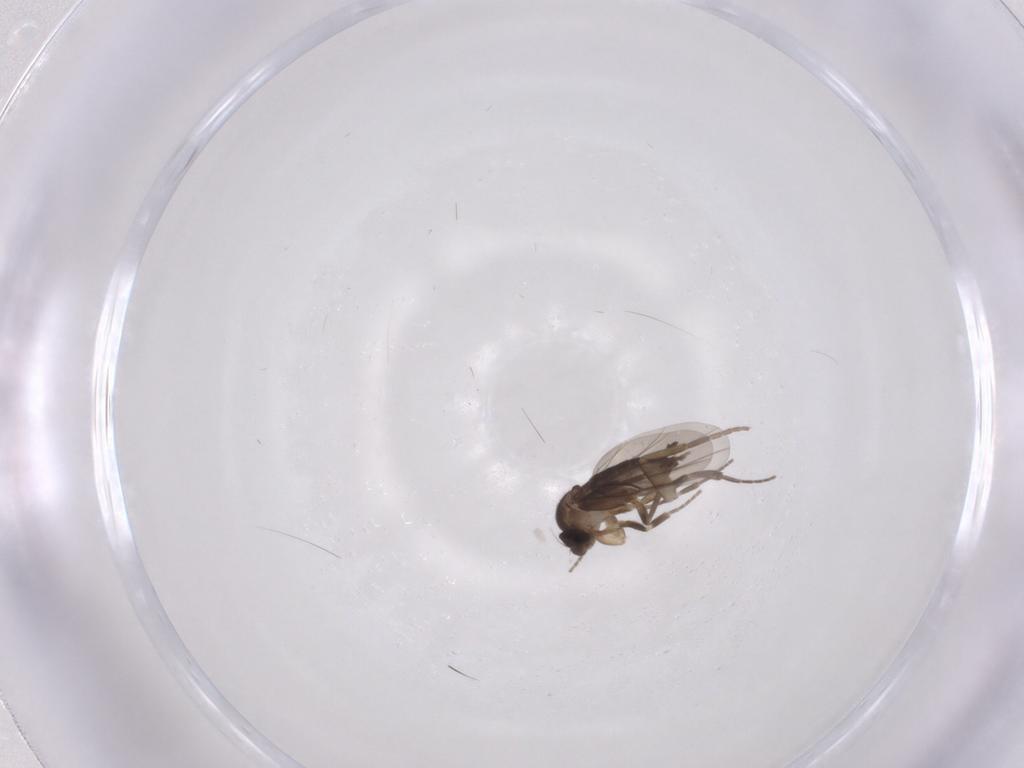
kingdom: Animalia
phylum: Arthropoda
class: Insecta
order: Diptera
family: Phoridae
